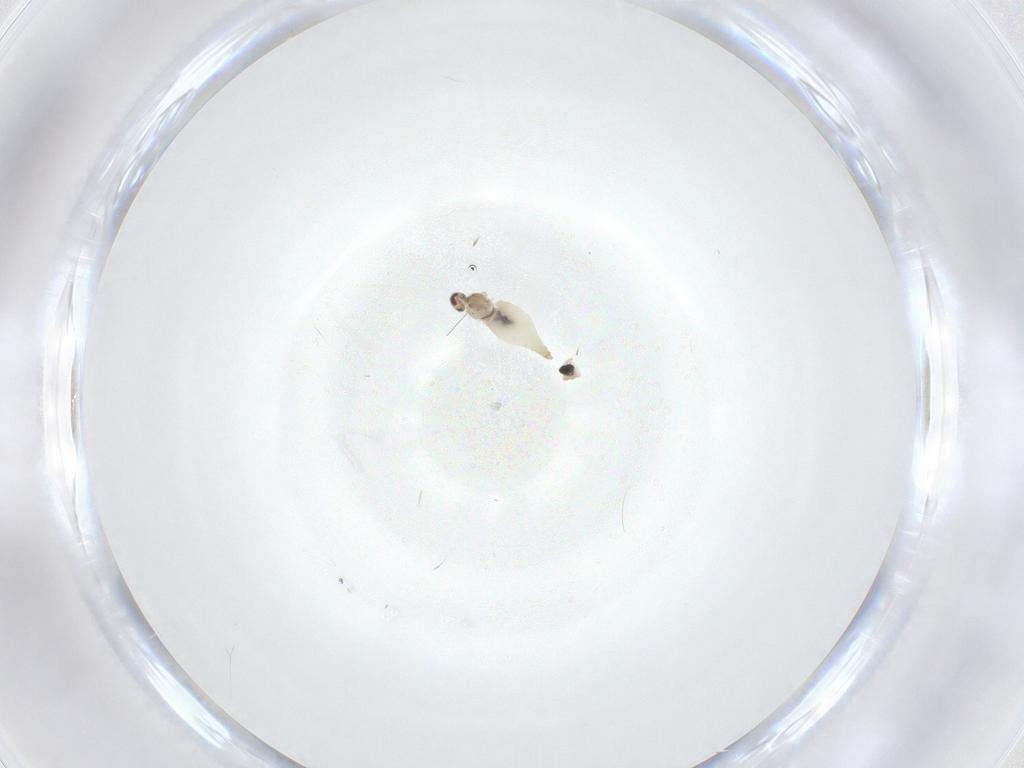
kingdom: Animalia
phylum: Arthropoda
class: Insecta
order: Diptera
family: Cecidomyiidae
